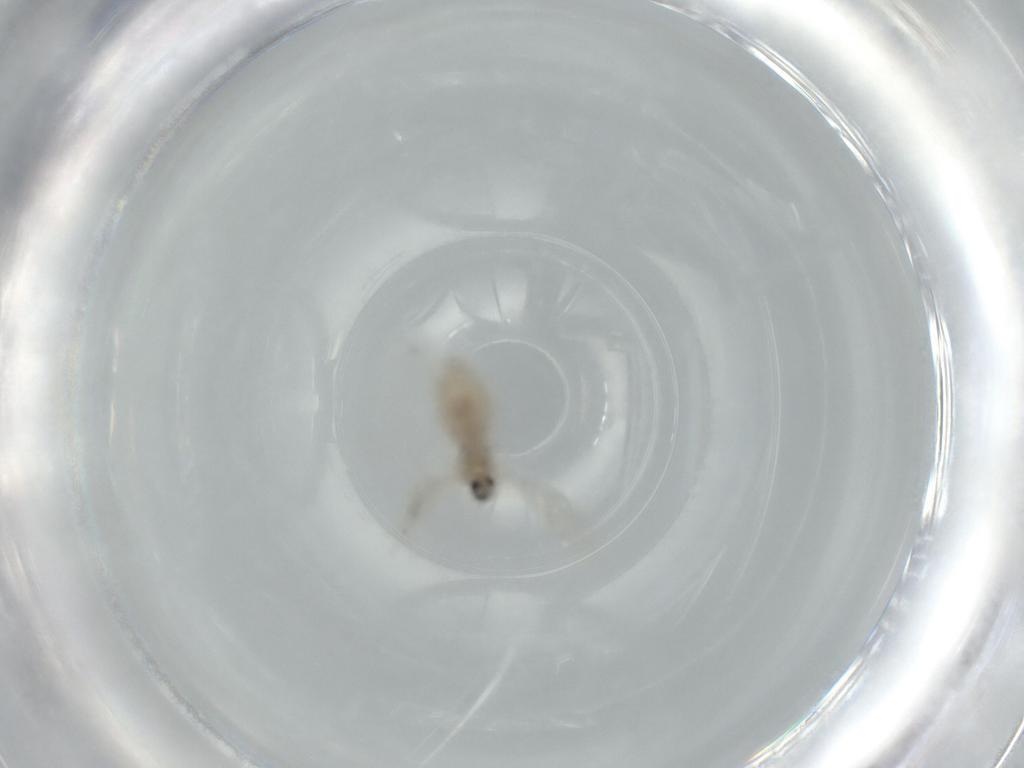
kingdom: Animalia
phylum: Arthropoda
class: Insecta
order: Diptera
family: Cecidomyiidae
